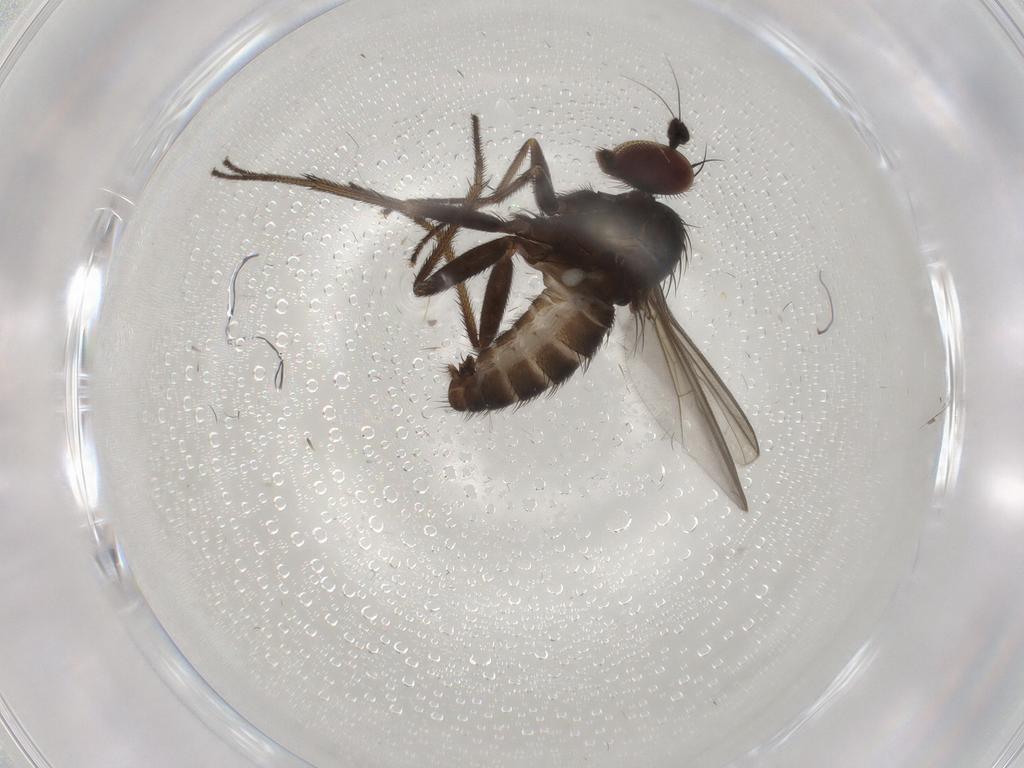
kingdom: Animalia
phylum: Arthropoda
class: Insecta
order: Diptera
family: Dolichopodidae
